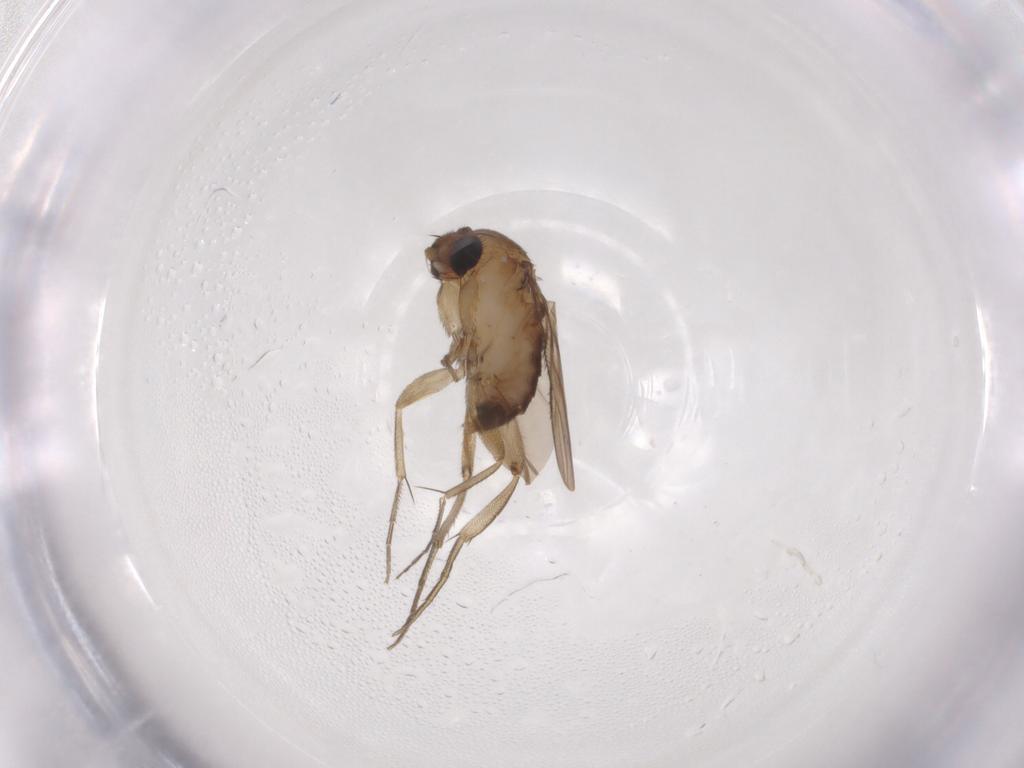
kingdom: Animalia
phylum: Arthropoda
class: Insecta
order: Diptera
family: Phoridae
